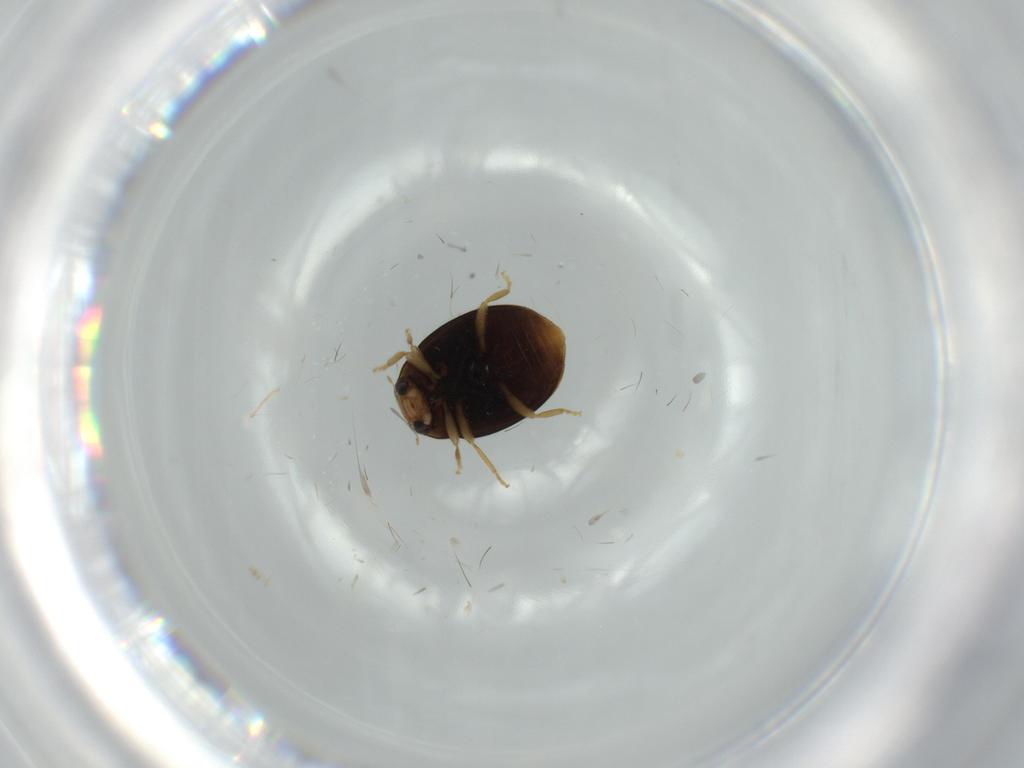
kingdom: Animalia
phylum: Arthropoda
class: Insecta
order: Coleoptera
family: Coccinellidae
